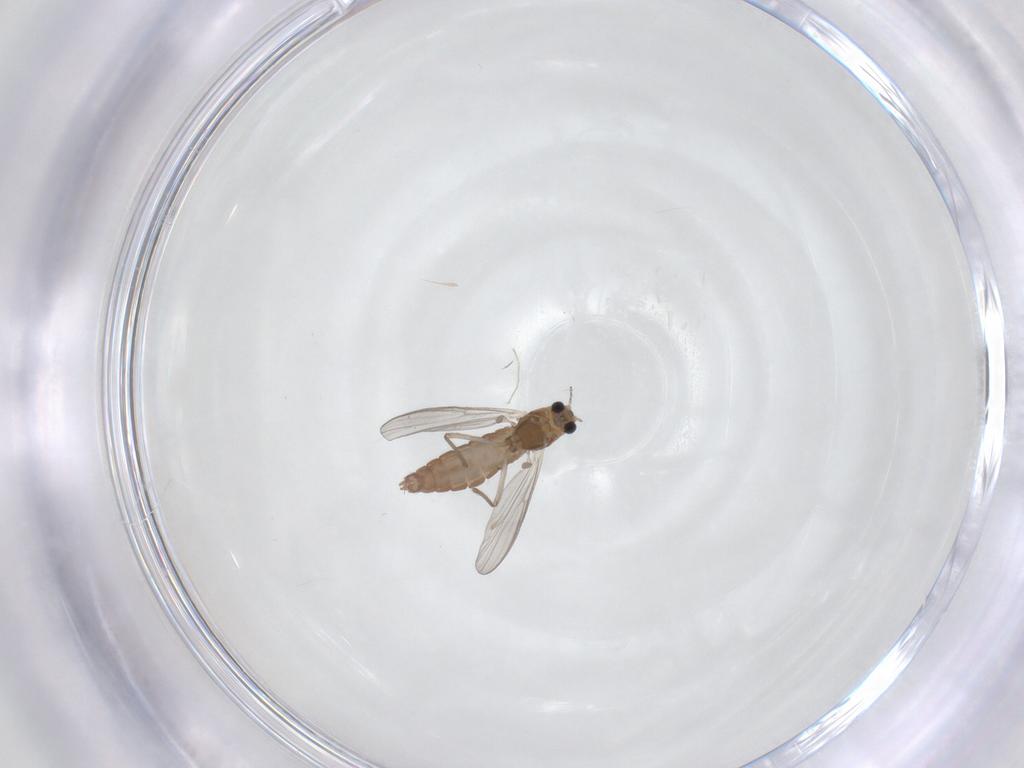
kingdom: Animalia
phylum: Arthropoda
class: Insecta
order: Diptera
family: Chironomidae
